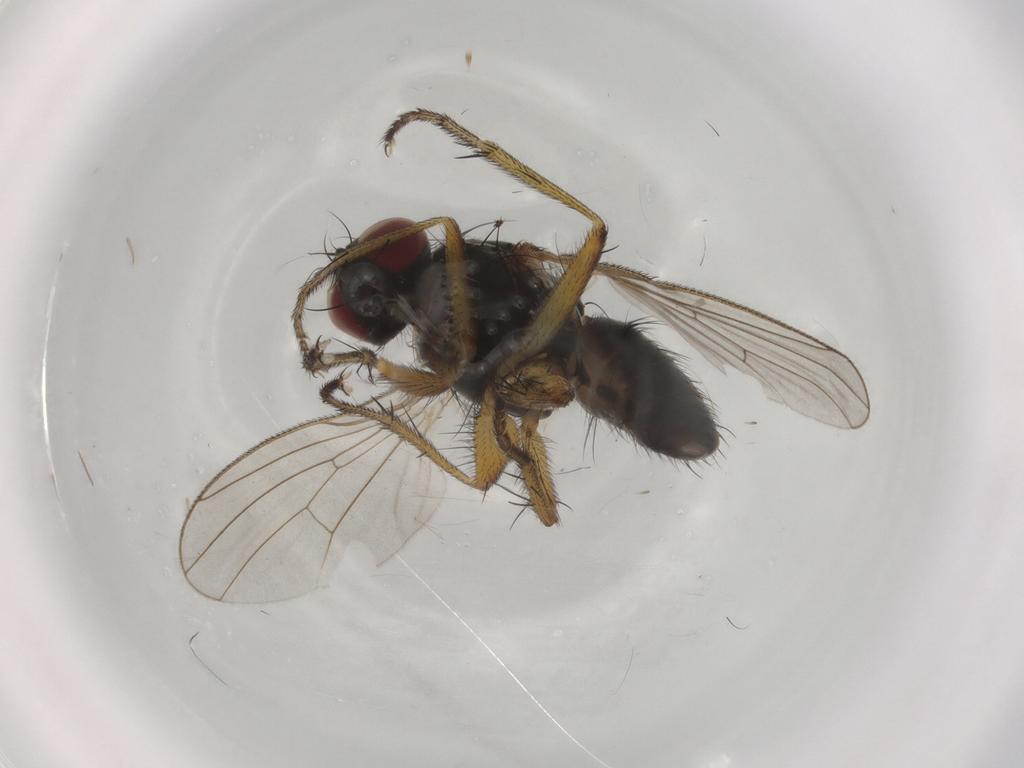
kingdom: Animalia
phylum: Arthropoda
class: Insecta
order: Diptera
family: Muscidae
